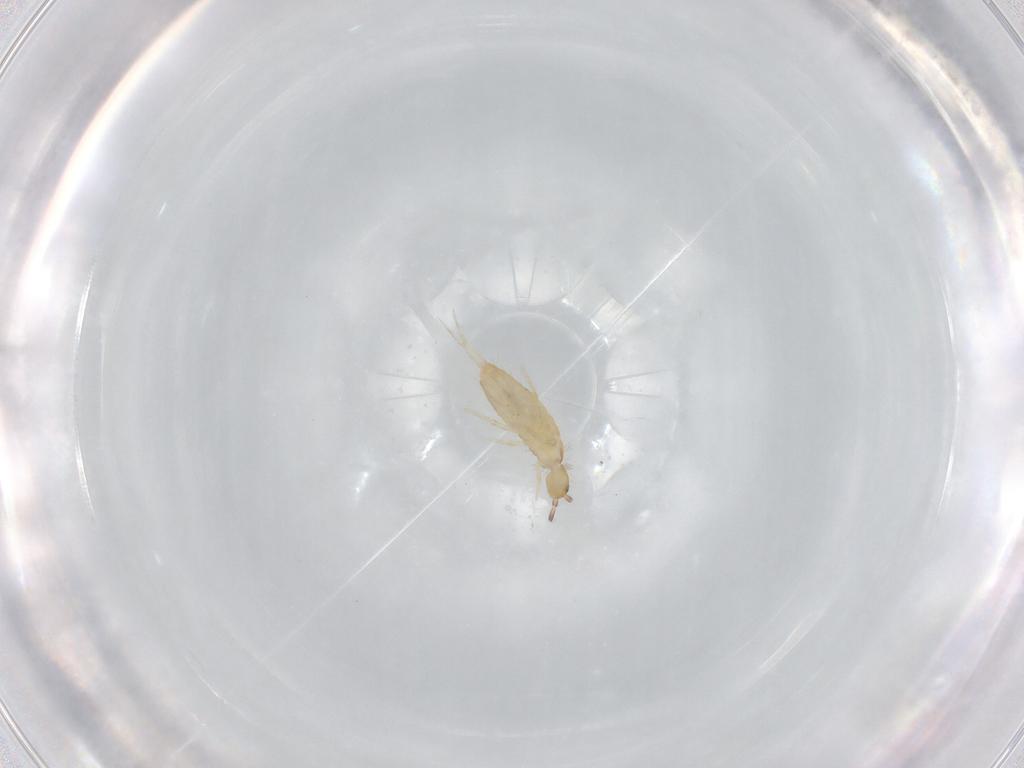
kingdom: Animalia
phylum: Arthropoda
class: Collembola
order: Entomobryomorpha
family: Entomobryidae
